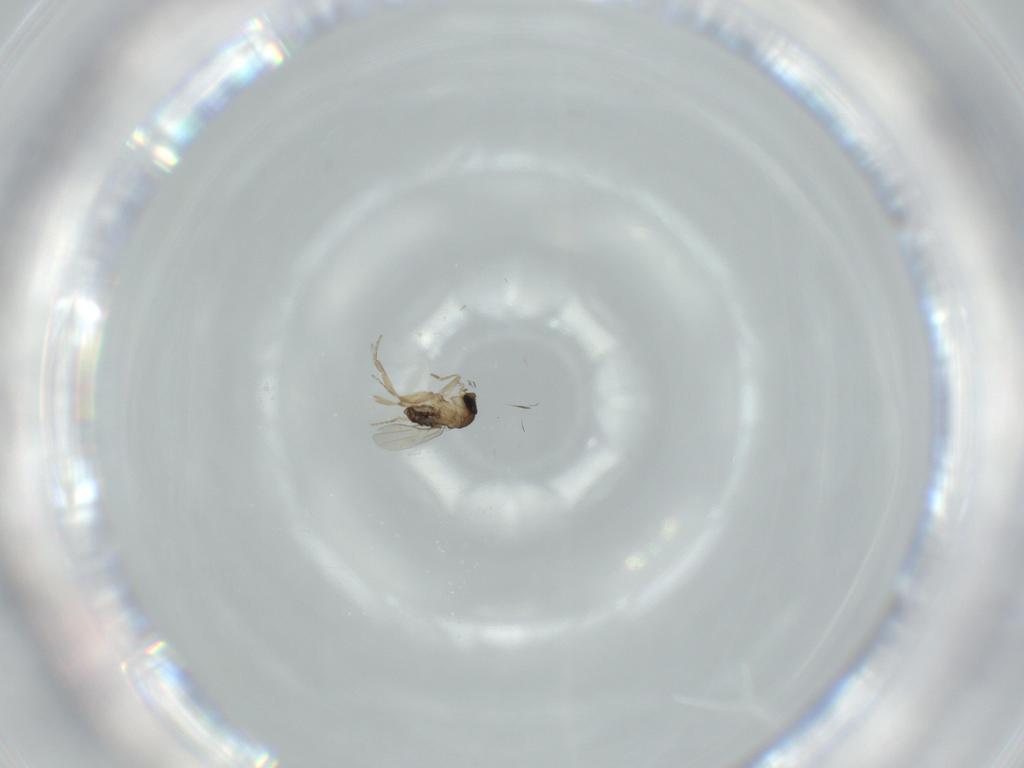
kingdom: Animalia
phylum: Arthropoda
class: Insecta
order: Diptera
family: Phoridae
